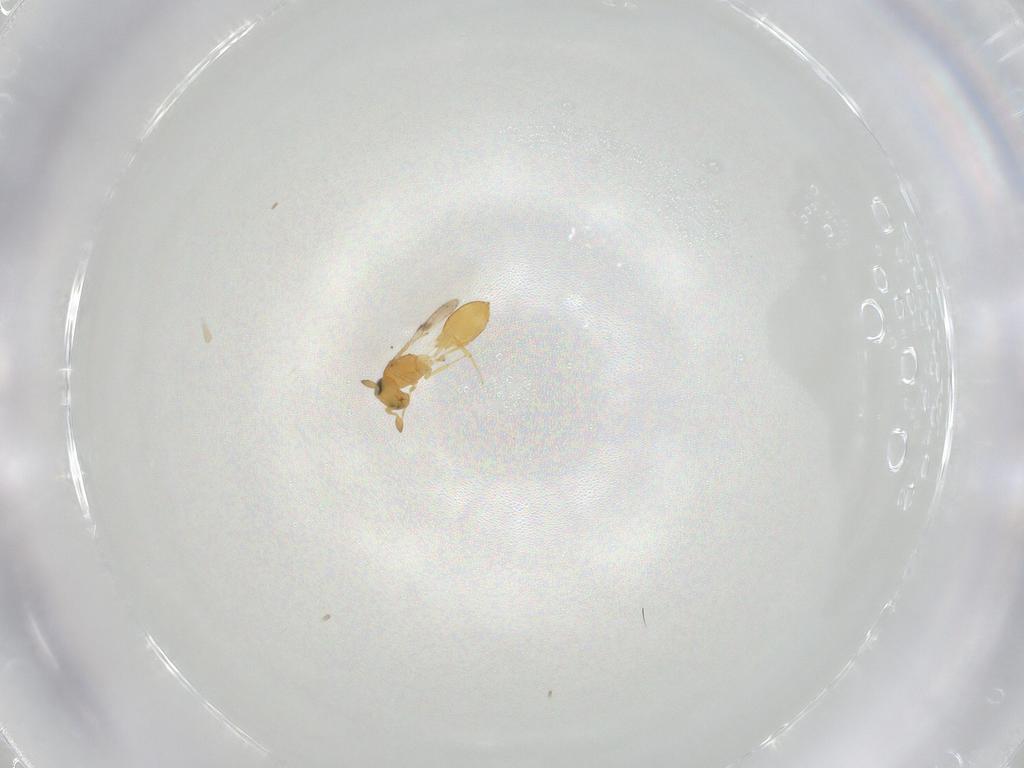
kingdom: Animalia
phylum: Arthropoda
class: Insecta
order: Hymenoptera
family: Scelionidae
